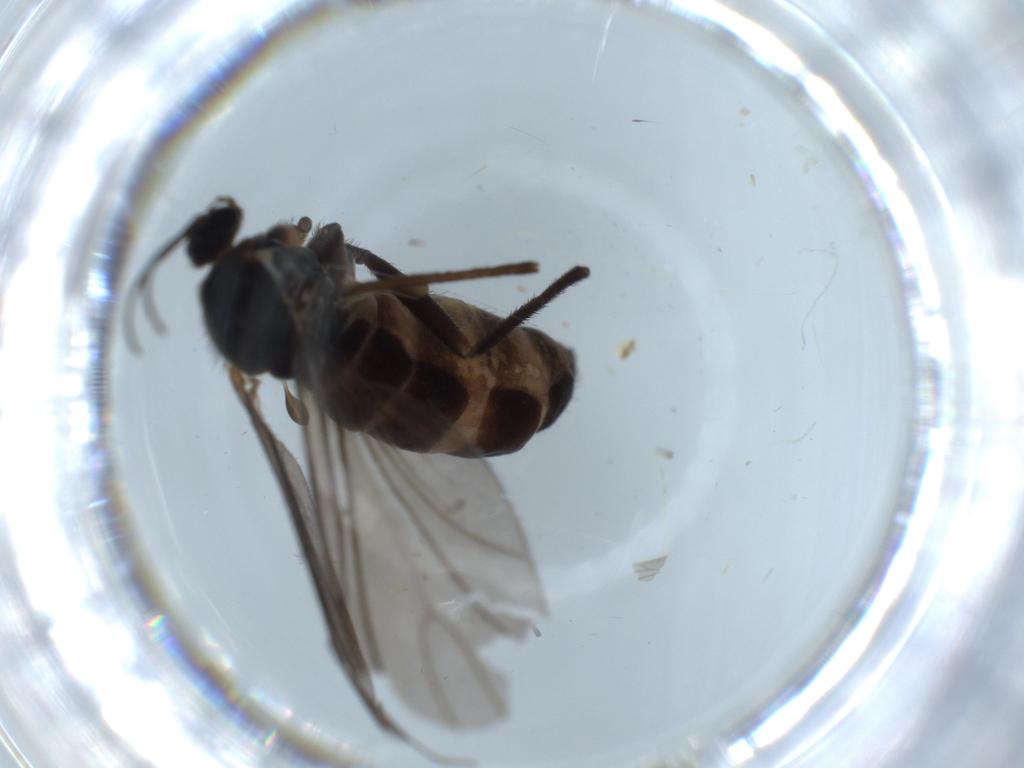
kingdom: Animalia
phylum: Arthropoda
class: Insecta
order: Diptera
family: Sciaridae
